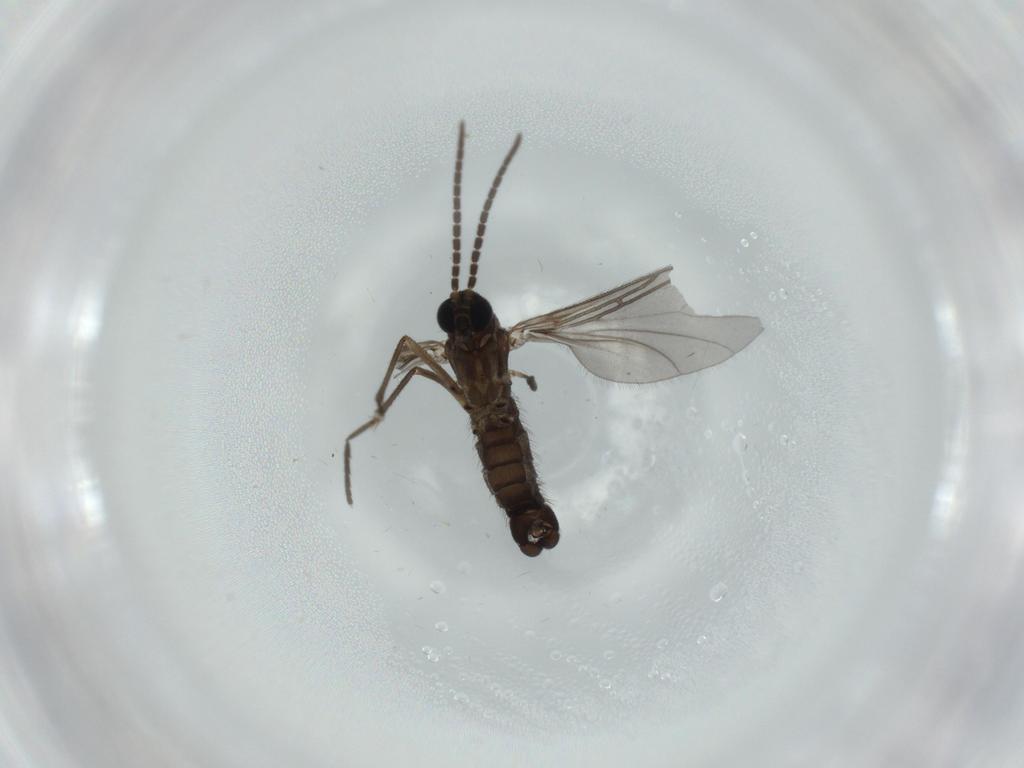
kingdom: Animalia
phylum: Arthropoda
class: Insecta
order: Diptera
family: Sciaridae
